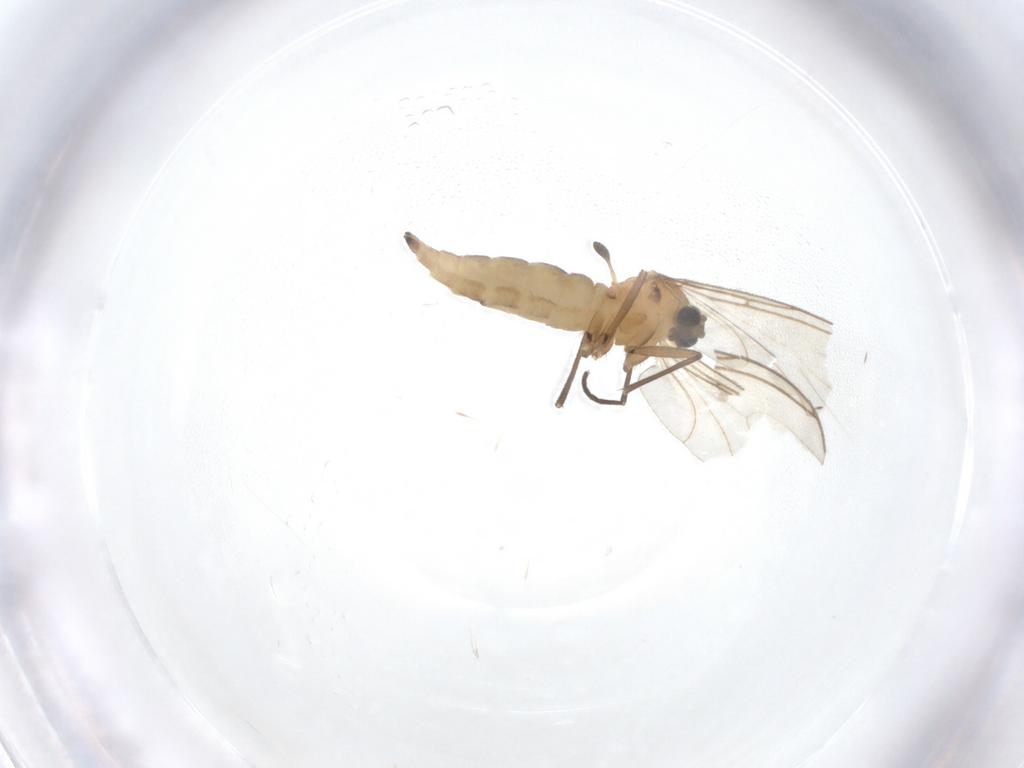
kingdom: Animalia
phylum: Arthropoda
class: Insecta
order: Diptera
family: Sciaridae
